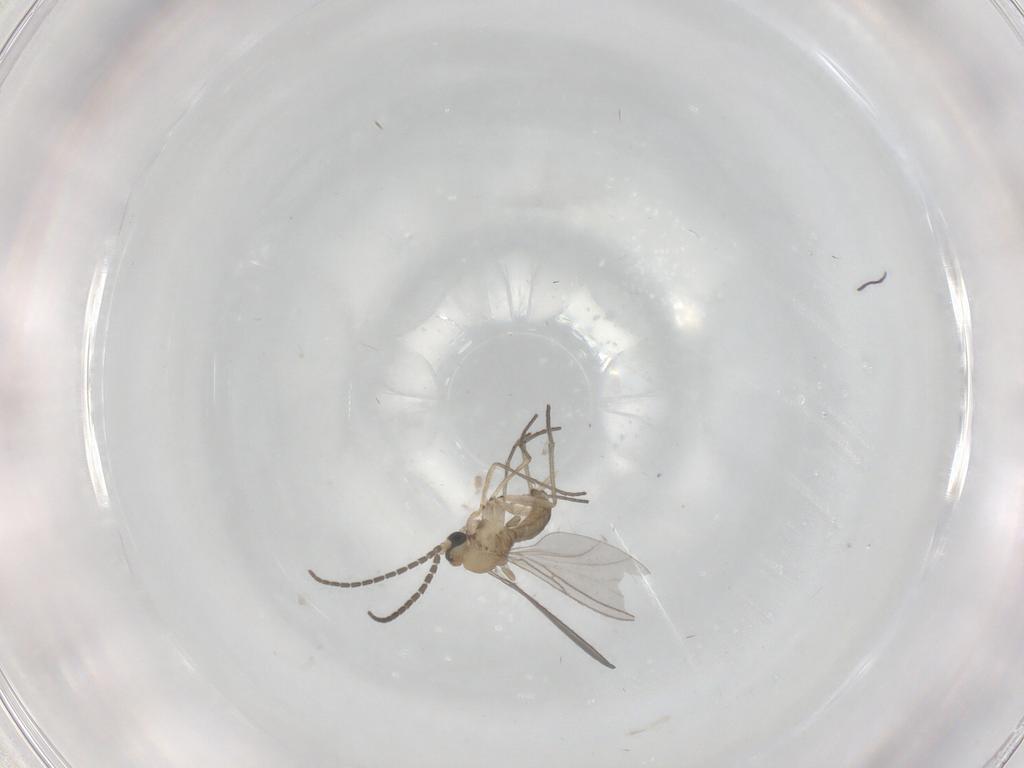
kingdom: Animalia
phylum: Arthropoda
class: Insecta
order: Diptera
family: Sciaridae
